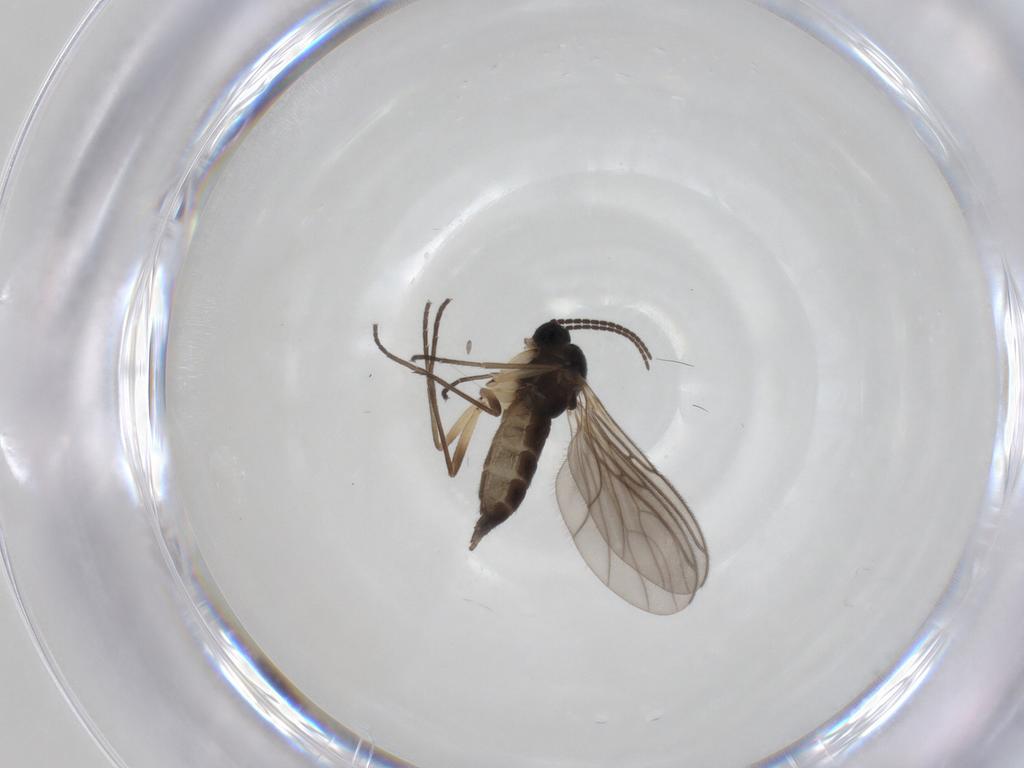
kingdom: Animalia
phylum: Arthropoda
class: Insecta
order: Diptera
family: Sciaridae
